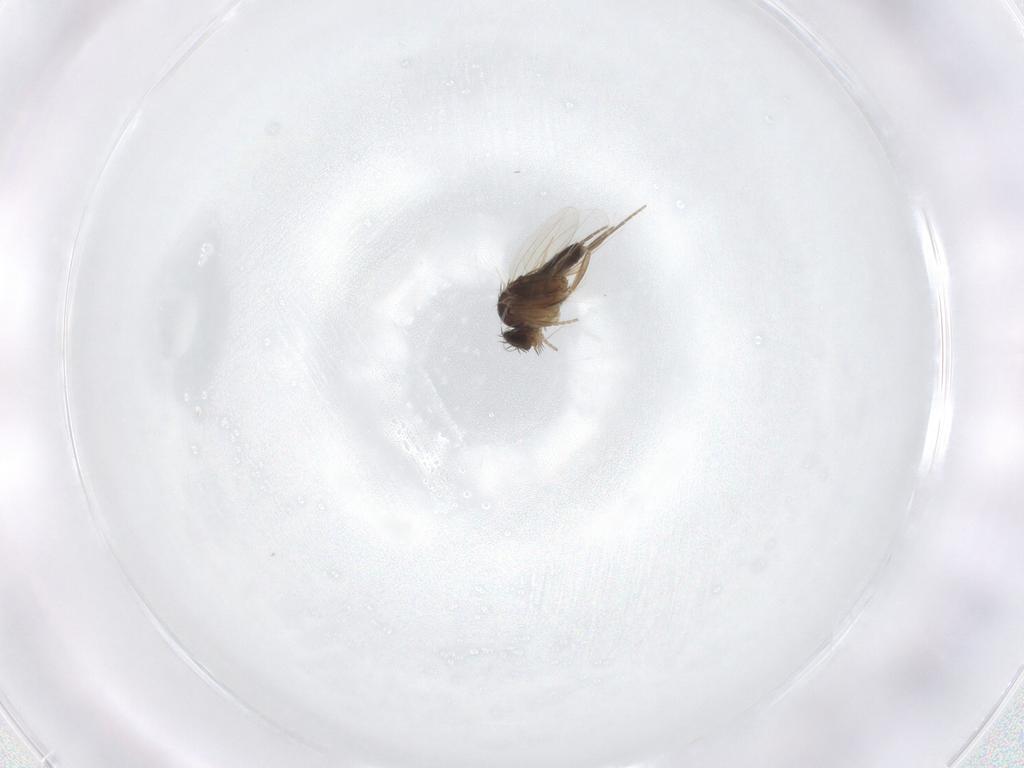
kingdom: Animalia
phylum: Arthropoda
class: Insecta
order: Diptera
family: Phoridae
